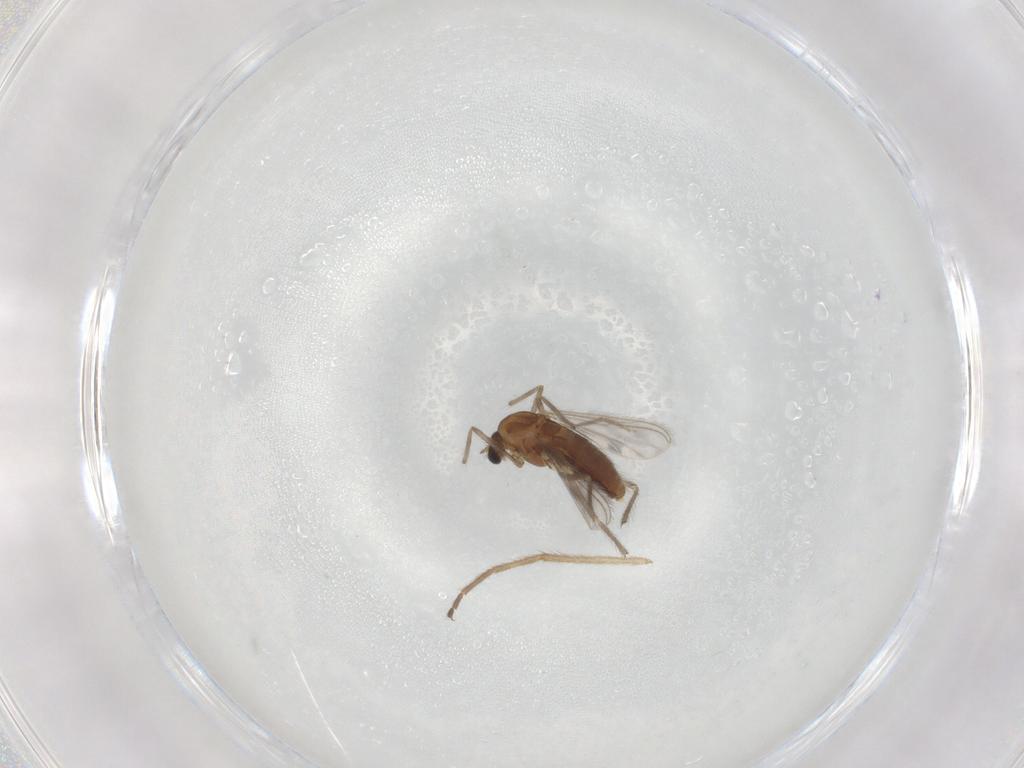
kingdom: Animalia
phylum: Arthropoda
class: Insecta
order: Diptera
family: Chironomidae
